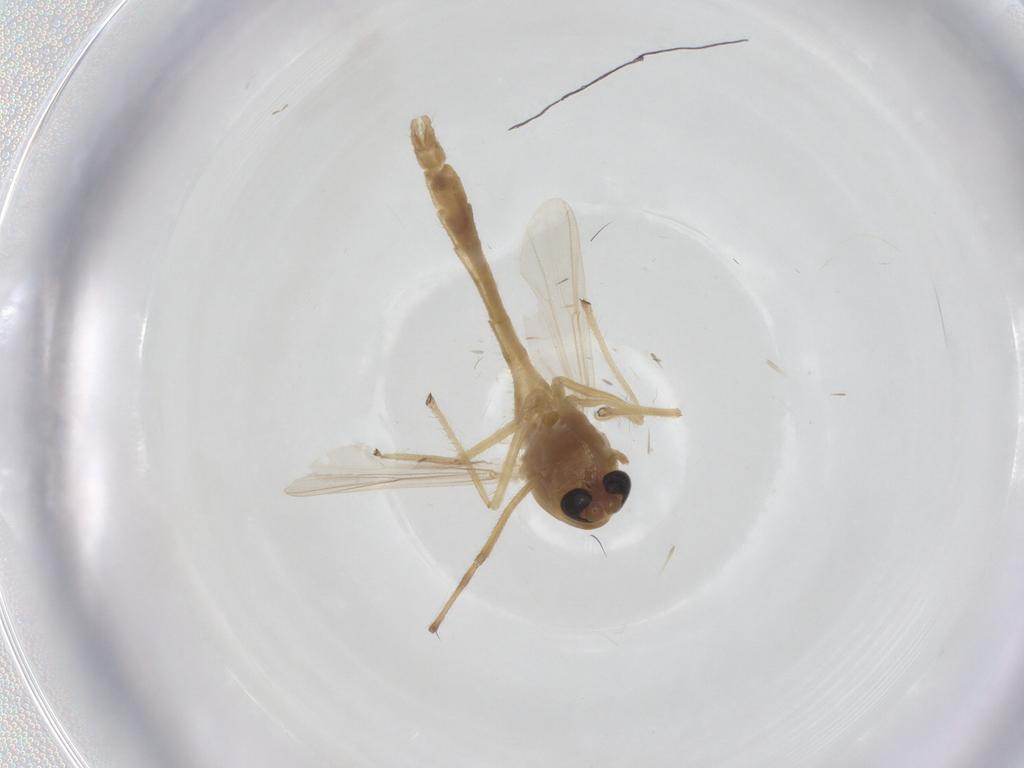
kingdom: Animalia
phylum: Arthropoda
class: Insecta
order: Diptera
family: Chironomidae
